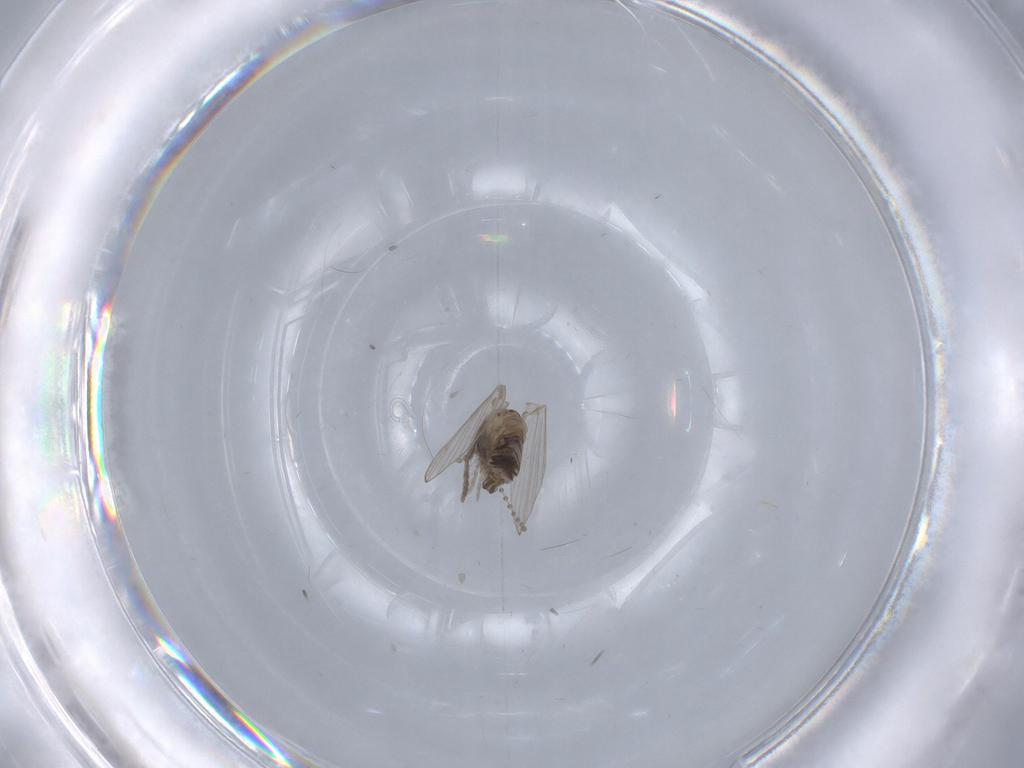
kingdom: Animalia
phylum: Arthropoda
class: Insecta
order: Diptera
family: Psychodidae
